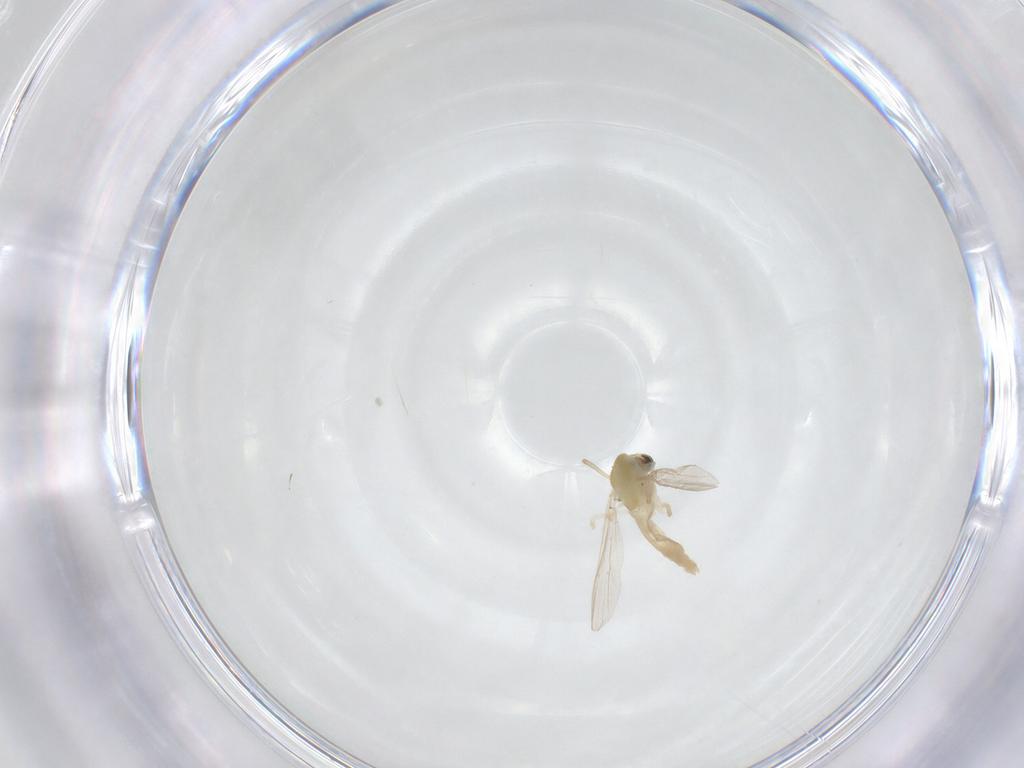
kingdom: Animalia
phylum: Arthropoda
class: Insecta
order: Diptera
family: Chironomidae
